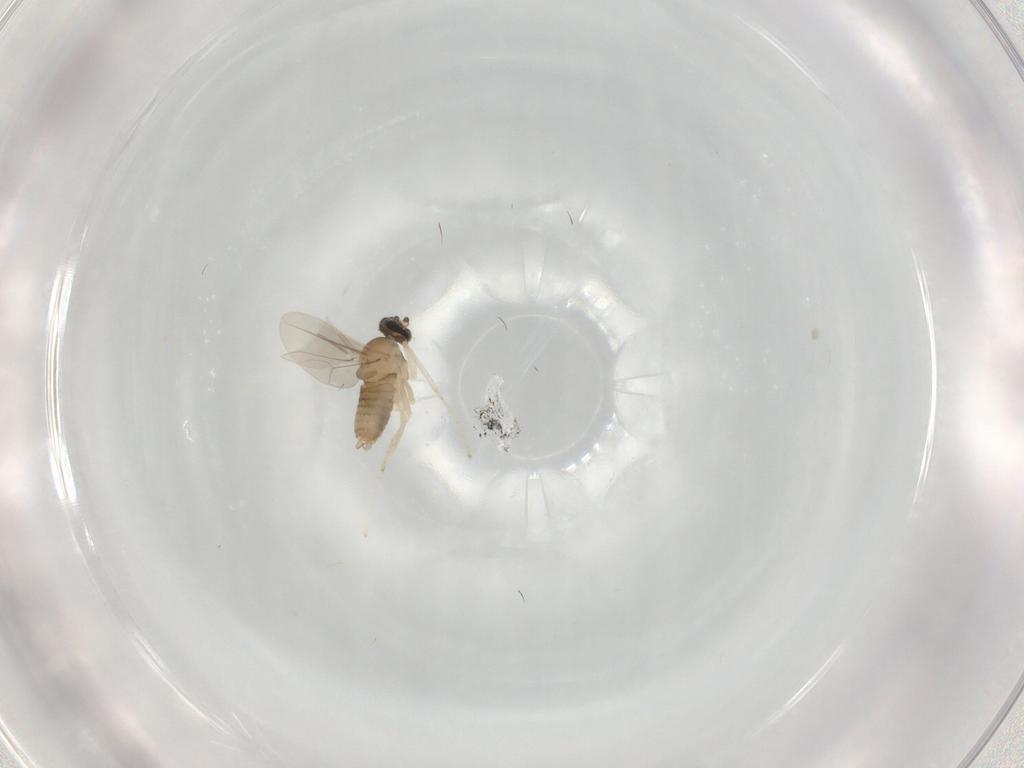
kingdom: Animalia
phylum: Arthropoda
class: Insecta
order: Diptera
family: Cecidomyiidae
